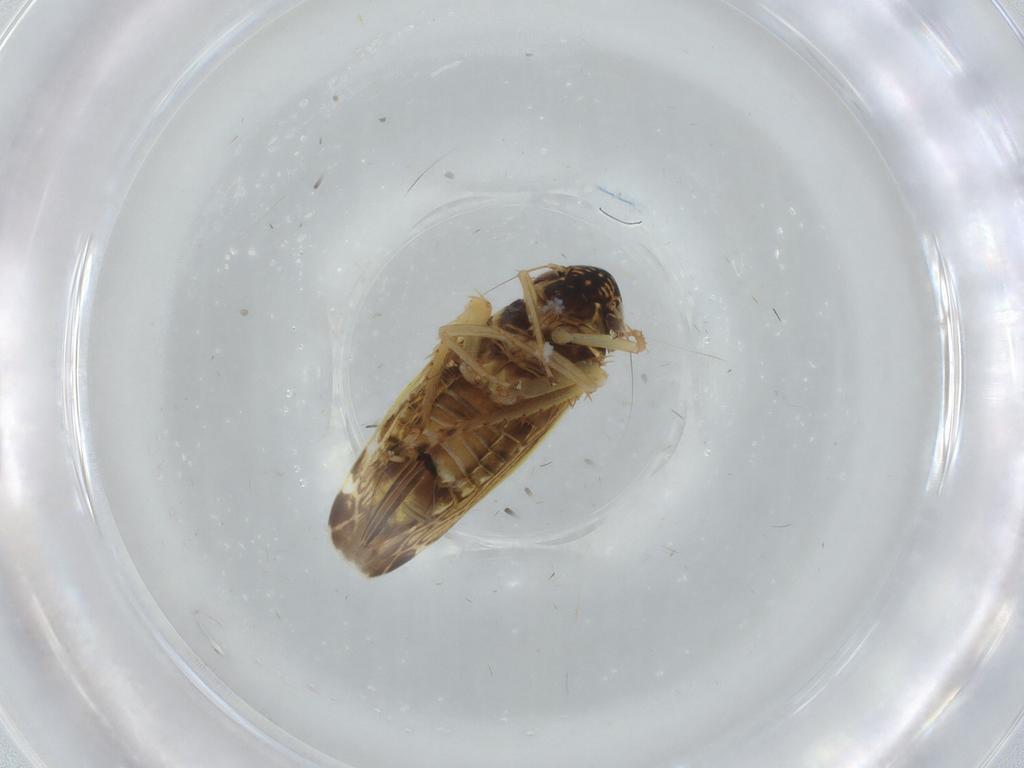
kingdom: Animalia
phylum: Arthropoda
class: Insecta
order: Hemiptera
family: Cicadellidae
